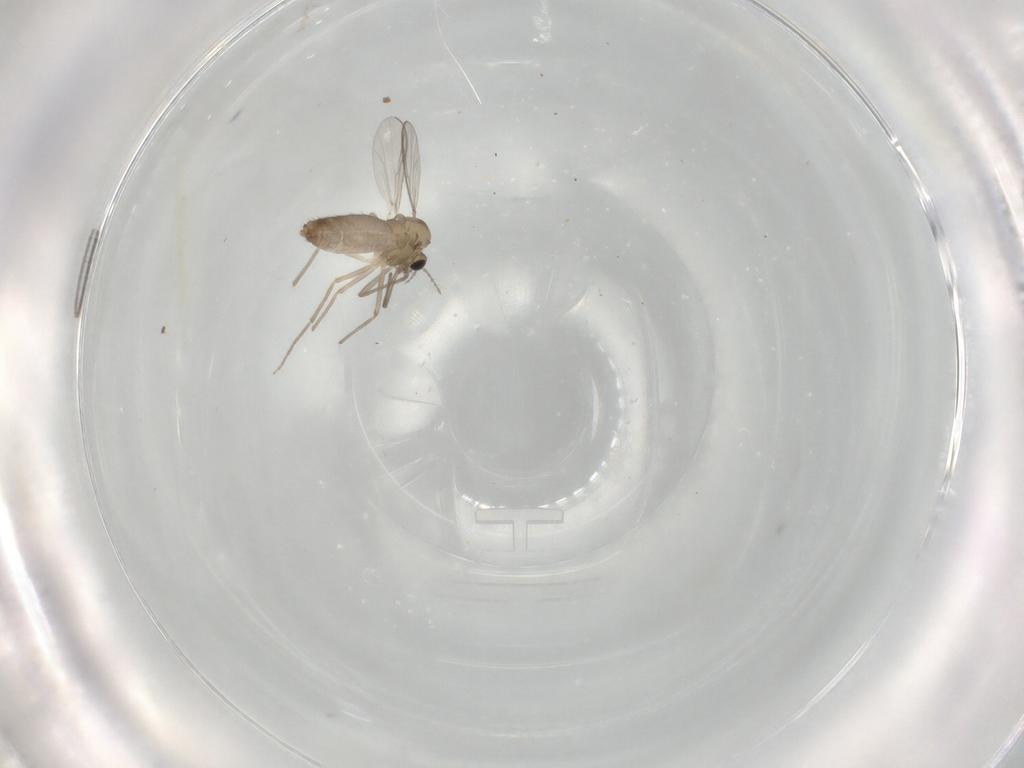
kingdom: Animalia
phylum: Arthropoda
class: Insecta
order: Diptera
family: Chironomidae
